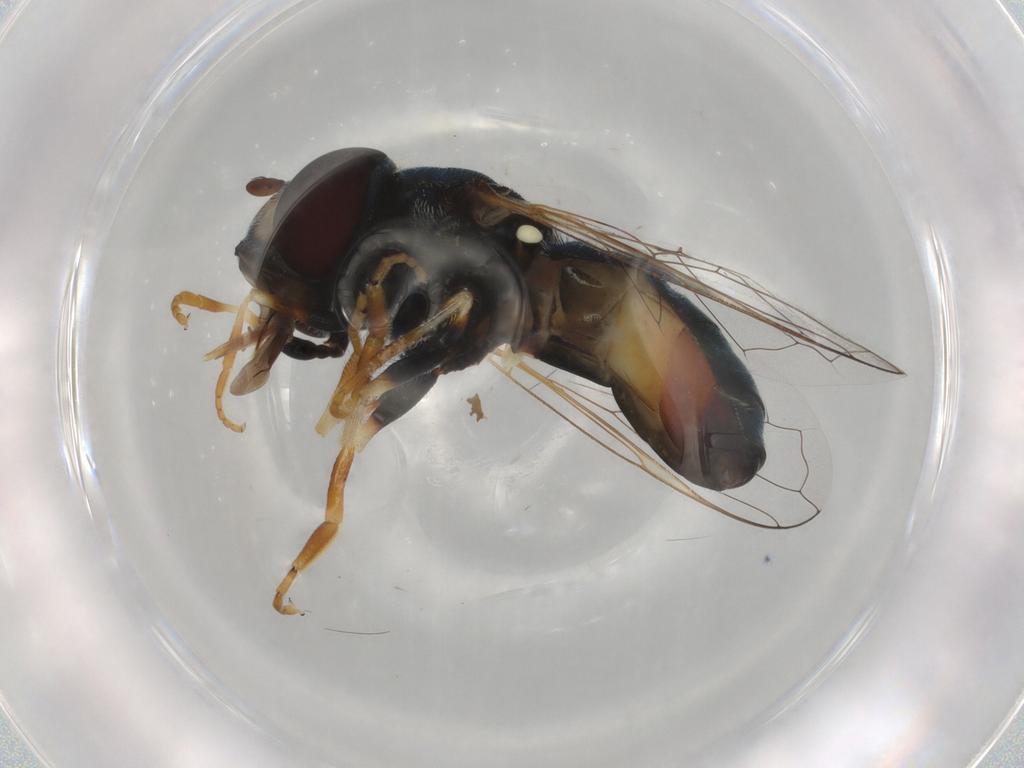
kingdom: Animalia
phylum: Arthropoda
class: Insecta
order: Diptera
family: Syrphidae
